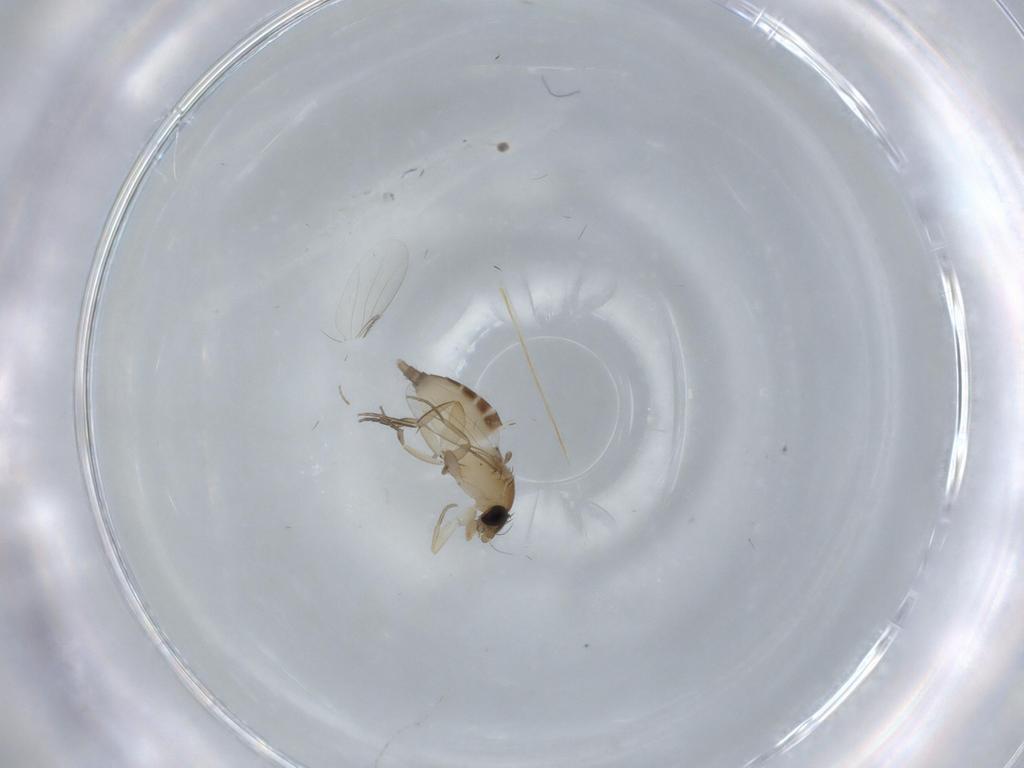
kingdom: Animalia
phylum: Arthropoda
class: Insecta
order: Diptera
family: Phoridae
